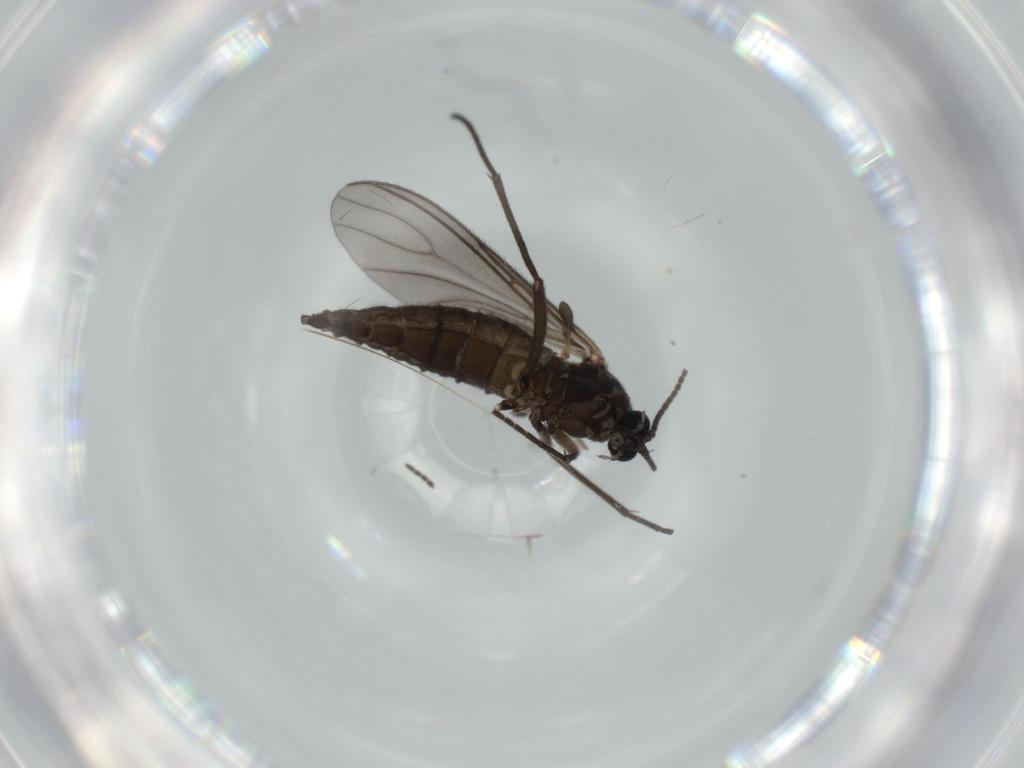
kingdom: Animalia
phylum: Arthropoda
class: Insecta
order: Diptera
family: Sciaridae
